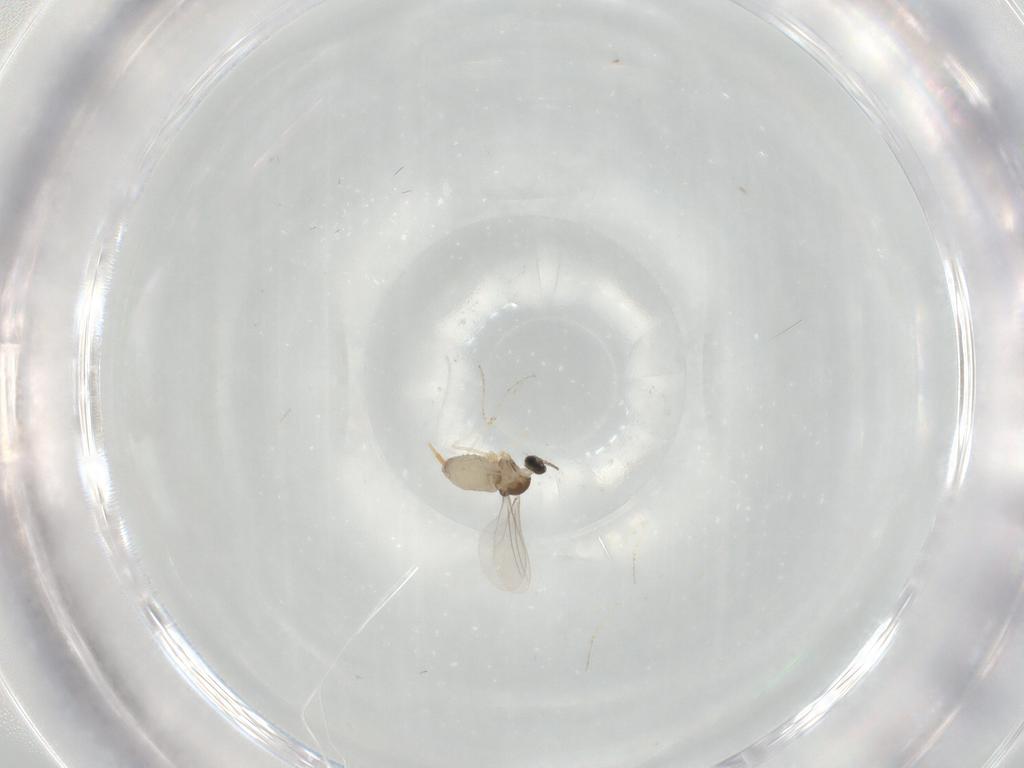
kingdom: Animalia
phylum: Arthropoda
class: Insecta
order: Diptera
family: Cecidomyiidae
